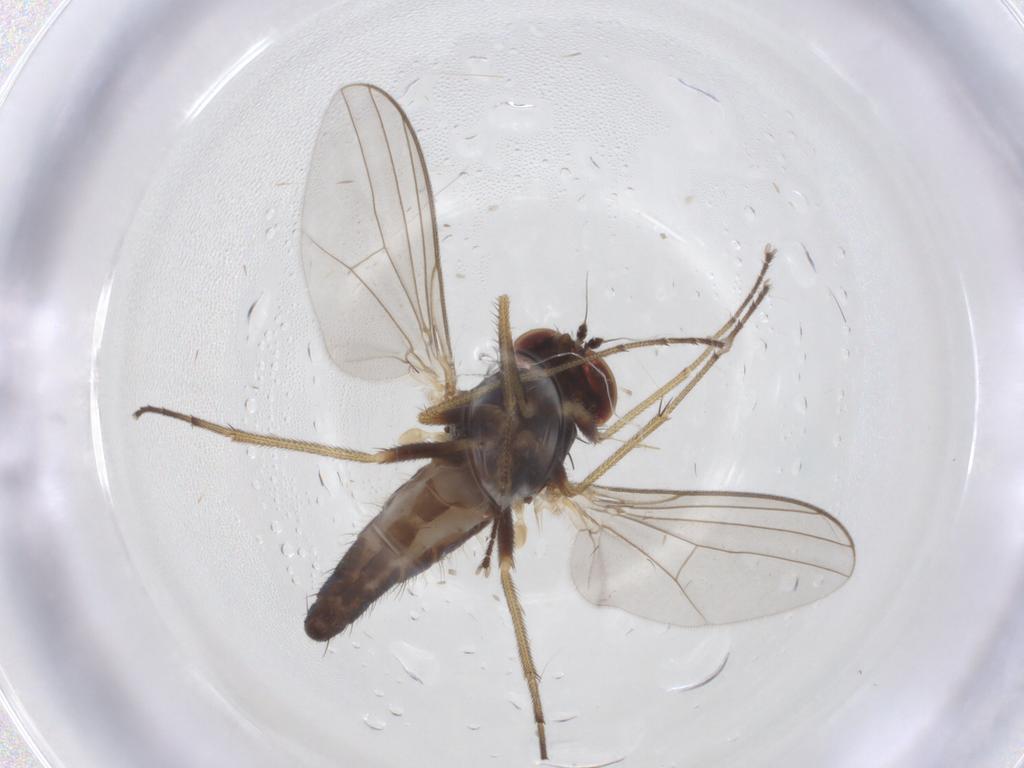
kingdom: Animalia
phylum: Arthropoda
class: Insecta
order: Diptera
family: Dolichopodidae
